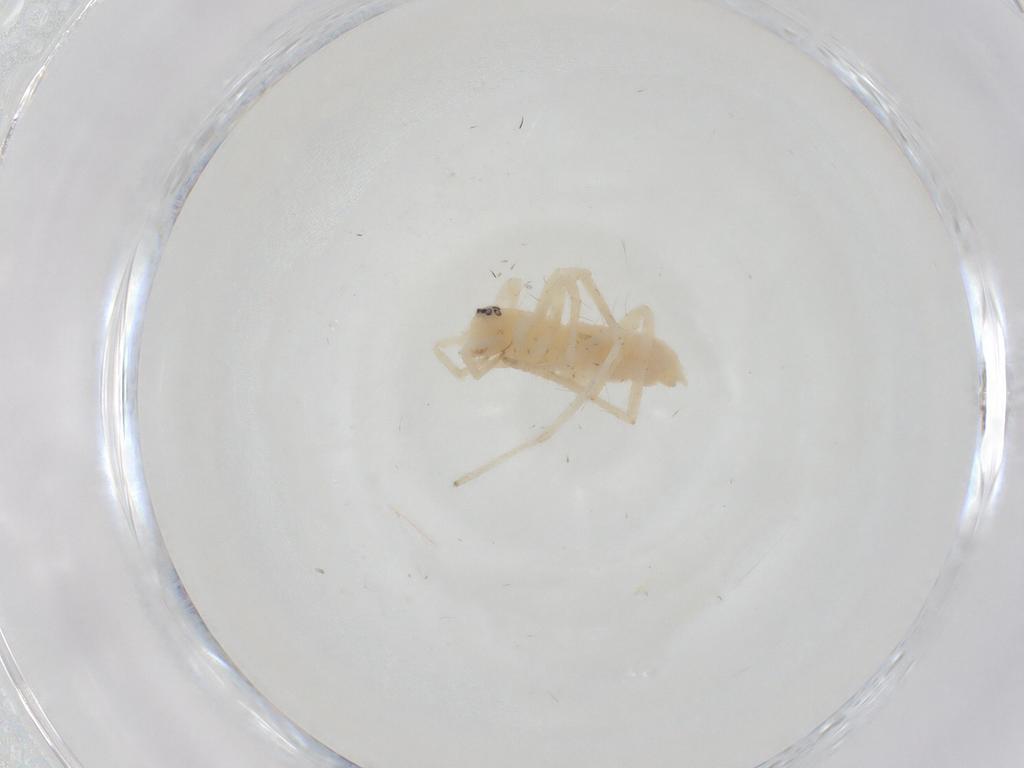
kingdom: Animalia
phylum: Arthropoda
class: Arachnida
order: Araneae
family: Anyphaenidae
